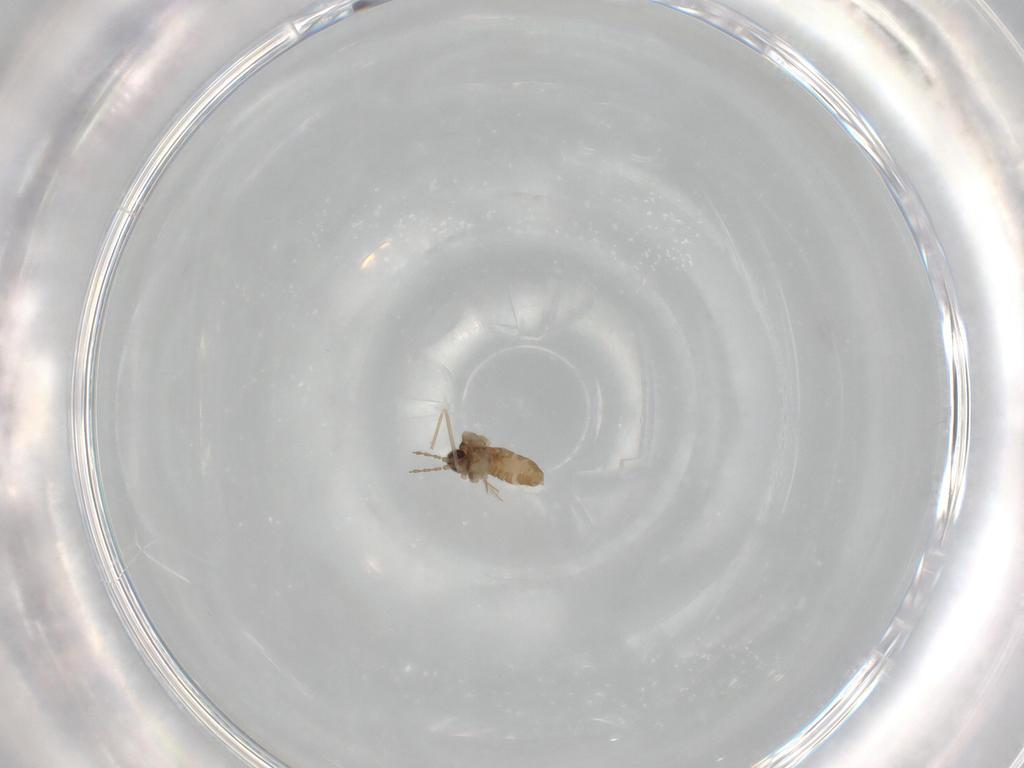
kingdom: Animalia
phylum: Arthropoda
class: Insecta
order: Diptera
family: Cecidomyiidae
